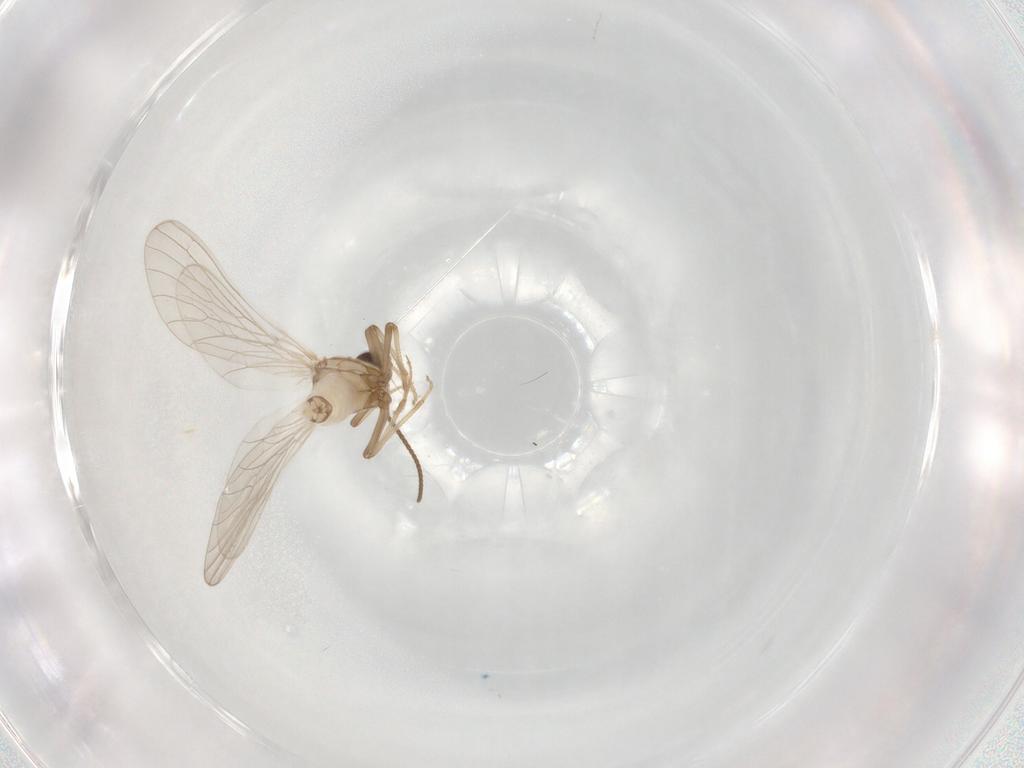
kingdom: Animalia
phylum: Arthropoda
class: Insecta
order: Neuroptera
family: Coniopterygidae
